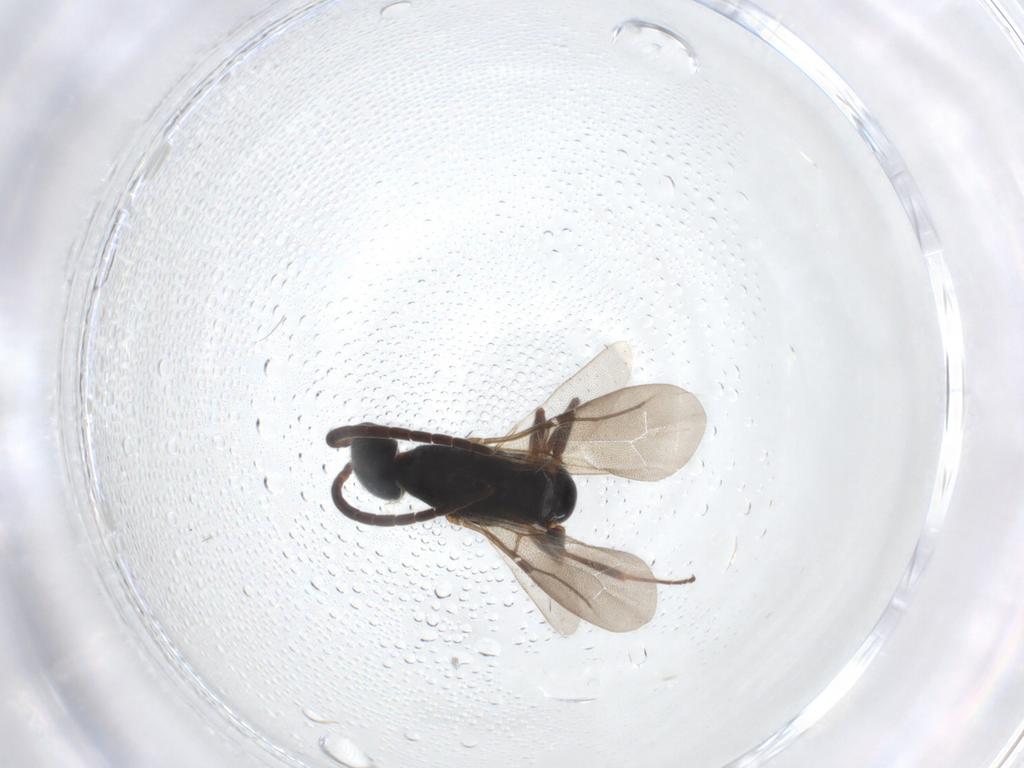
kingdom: Animalia
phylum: Arthropoda
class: Insecta
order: Hymenoptera
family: Bethylidae
